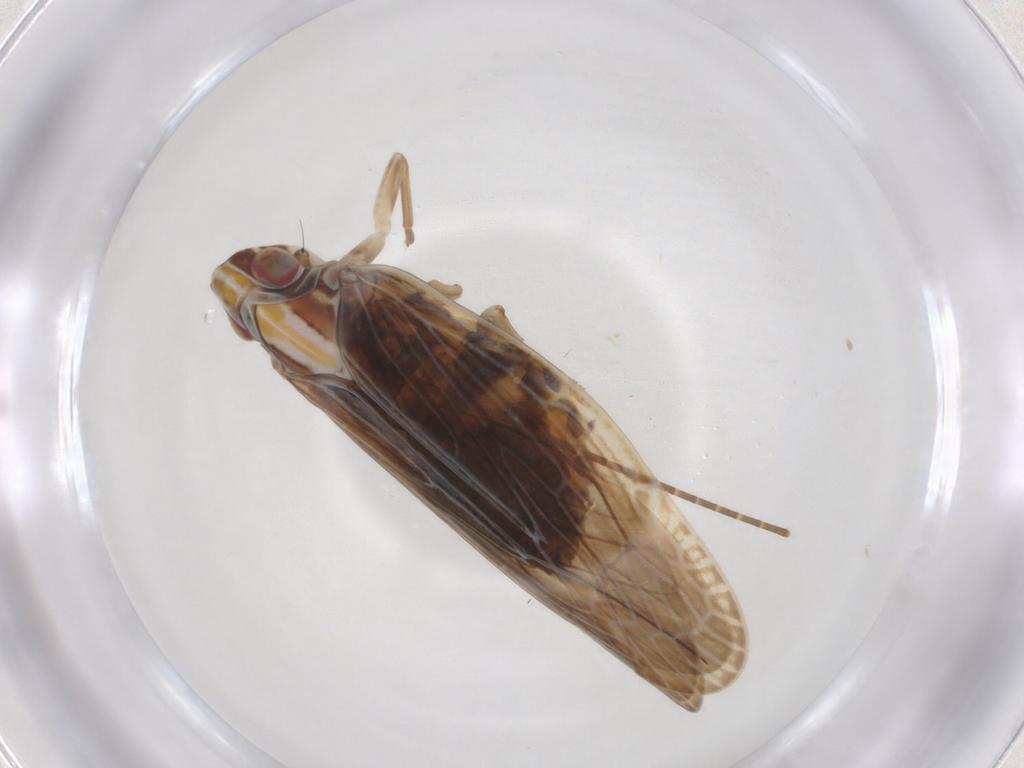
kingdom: Animalia
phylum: Arthropoda
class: Insecta
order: Hemiptera
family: Achilidae
